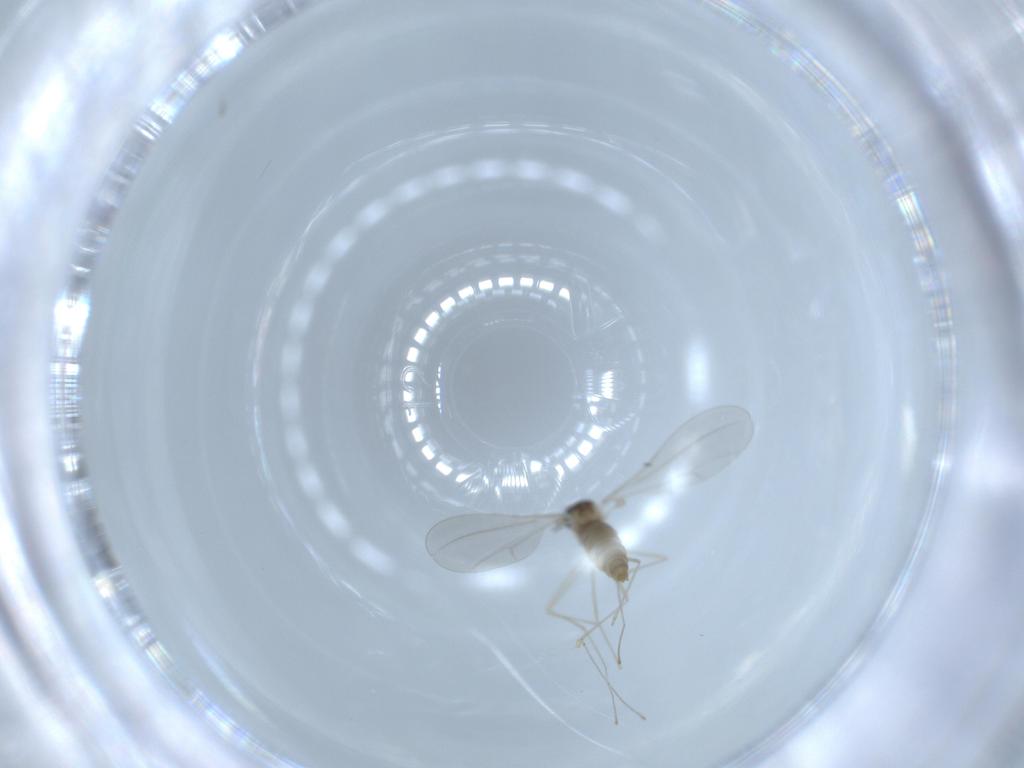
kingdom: Animalia
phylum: Arthropoda
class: Insecta
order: Diptera
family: Cecidomyiidae
